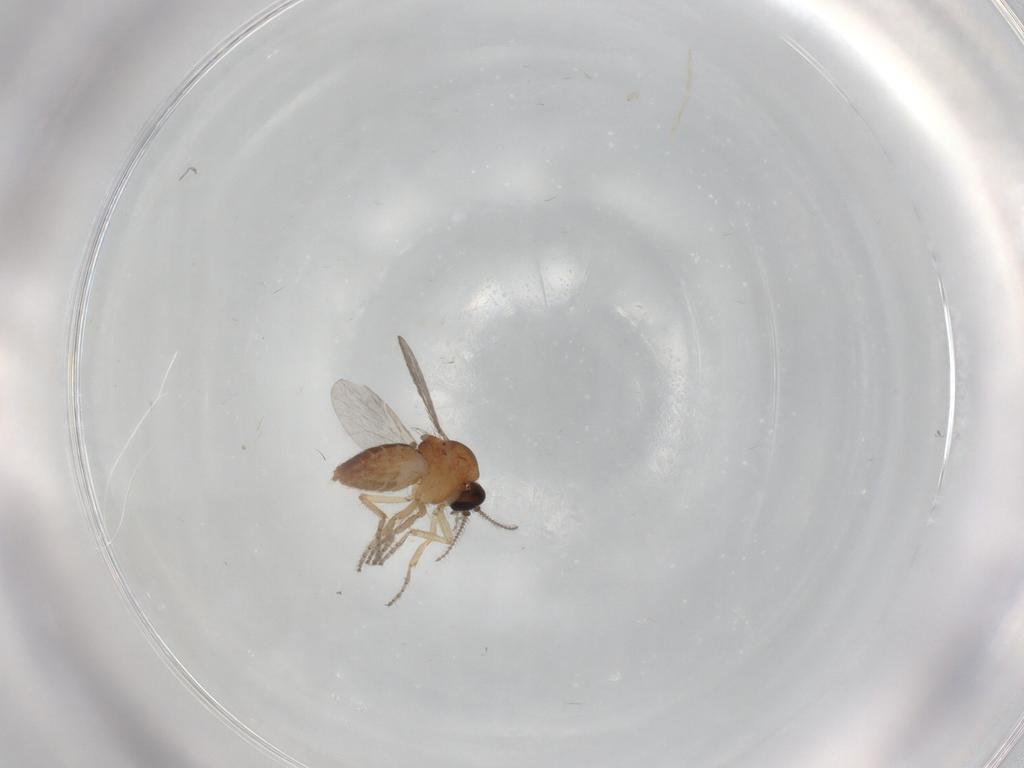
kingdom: Animalia
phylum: Arthropoda
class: Insecta
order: Diptera
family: Ceratopogonidae
